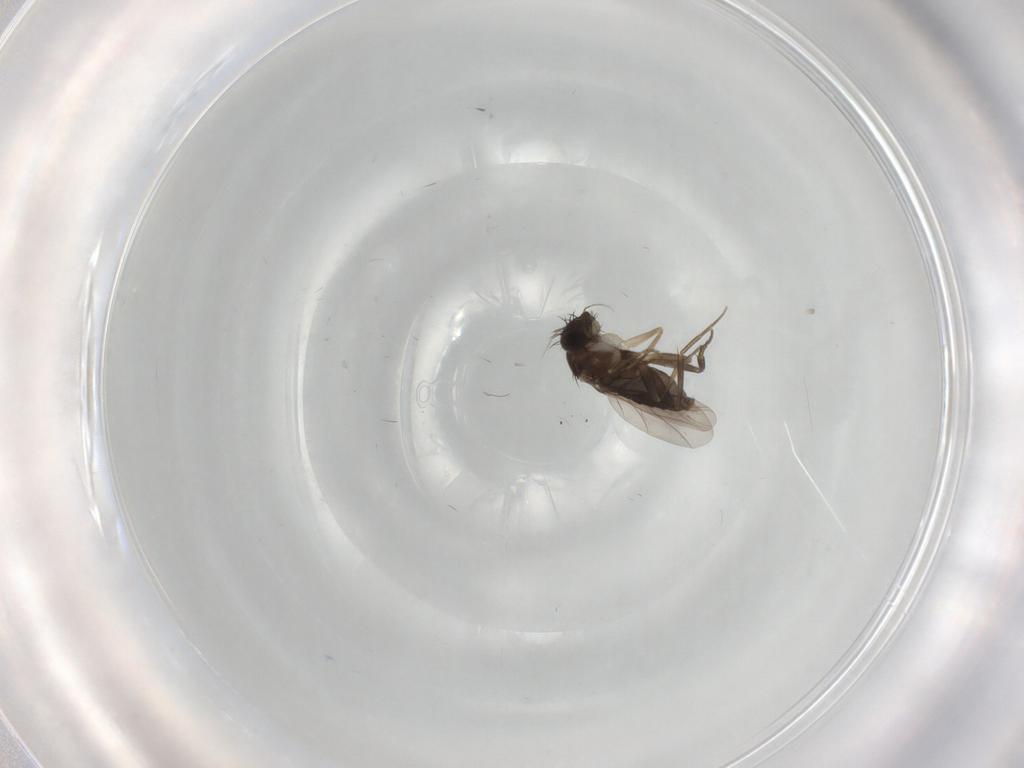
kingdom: Animalia
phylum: Arthropoda
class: Insecta
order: Diptera
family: Phoridae
